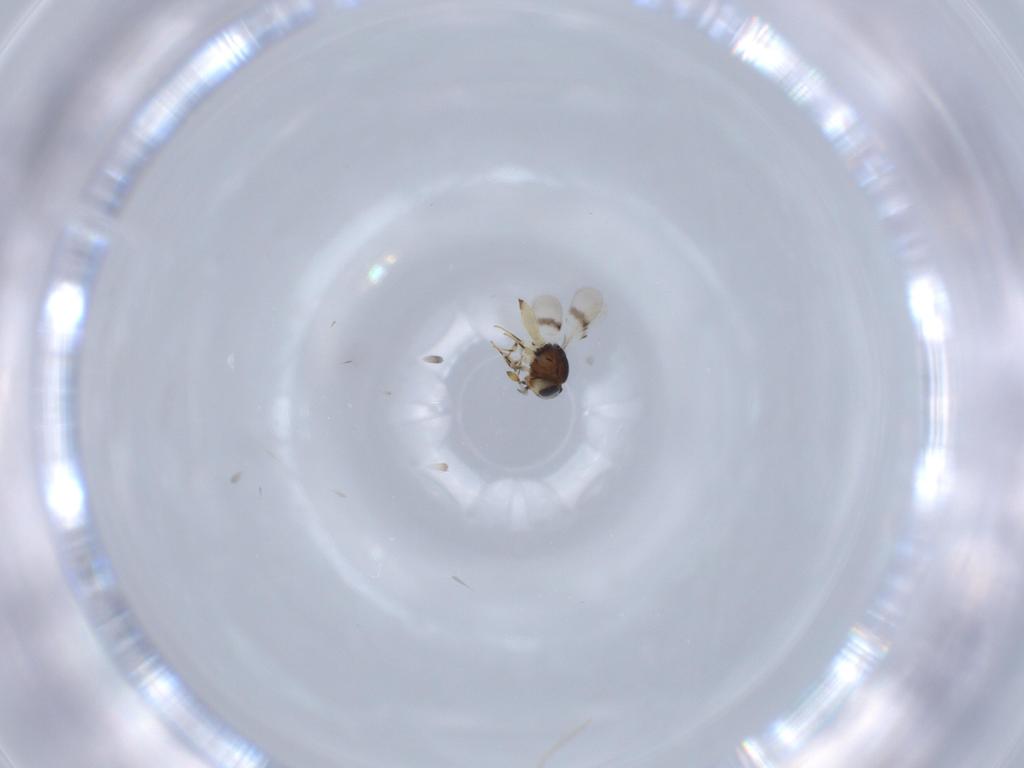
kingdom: Animalia
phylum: Arthropoda
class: Insecta
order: Hymenoptera
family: Scelionidae
